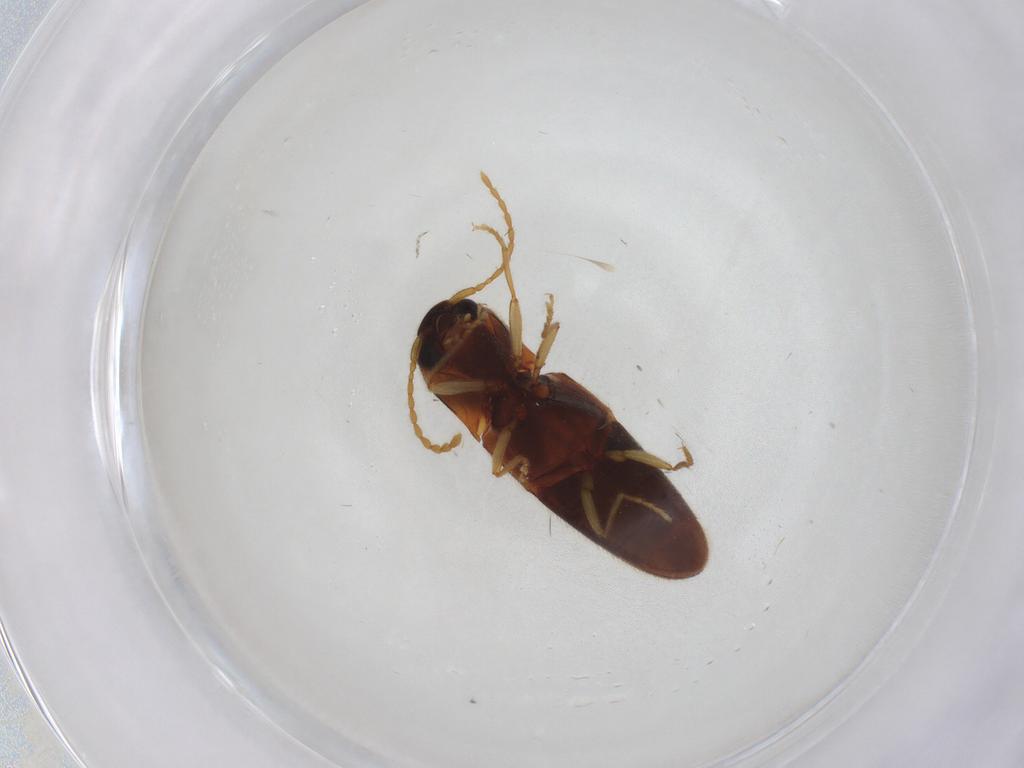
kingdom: Animalia
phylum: Arthropoda
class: Insecta
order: Coleoptera
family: Elateridae
